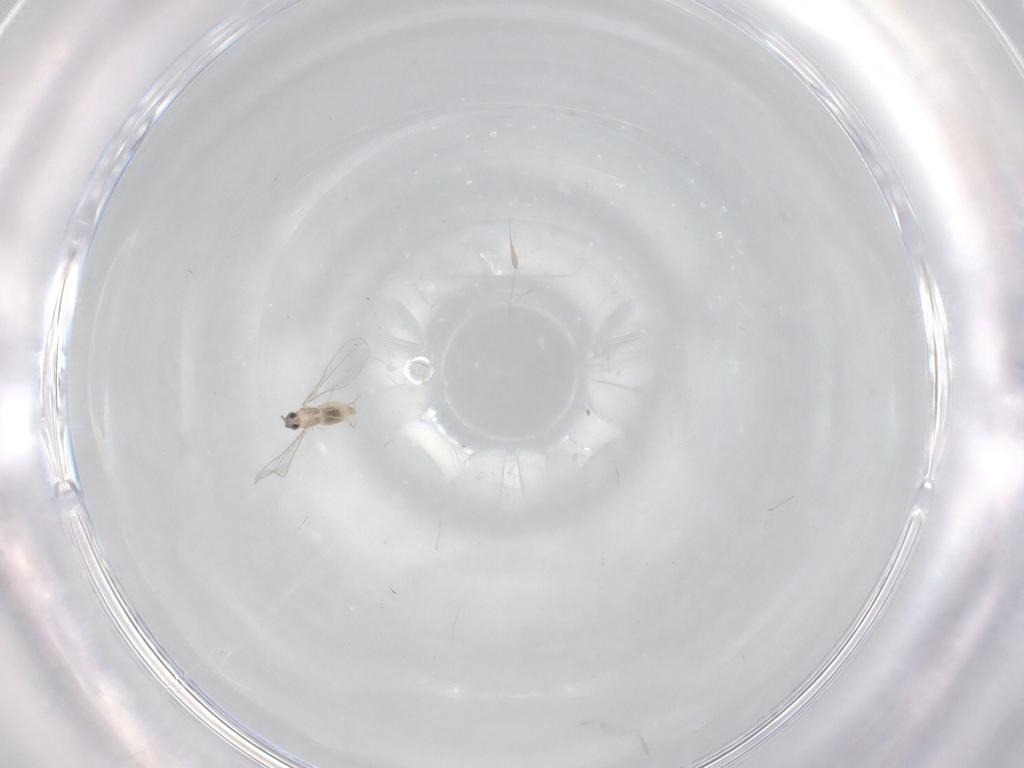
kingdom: Animalia
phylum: Arthropoda
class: Insecta
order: Diptera
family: Cecidomyiidae
